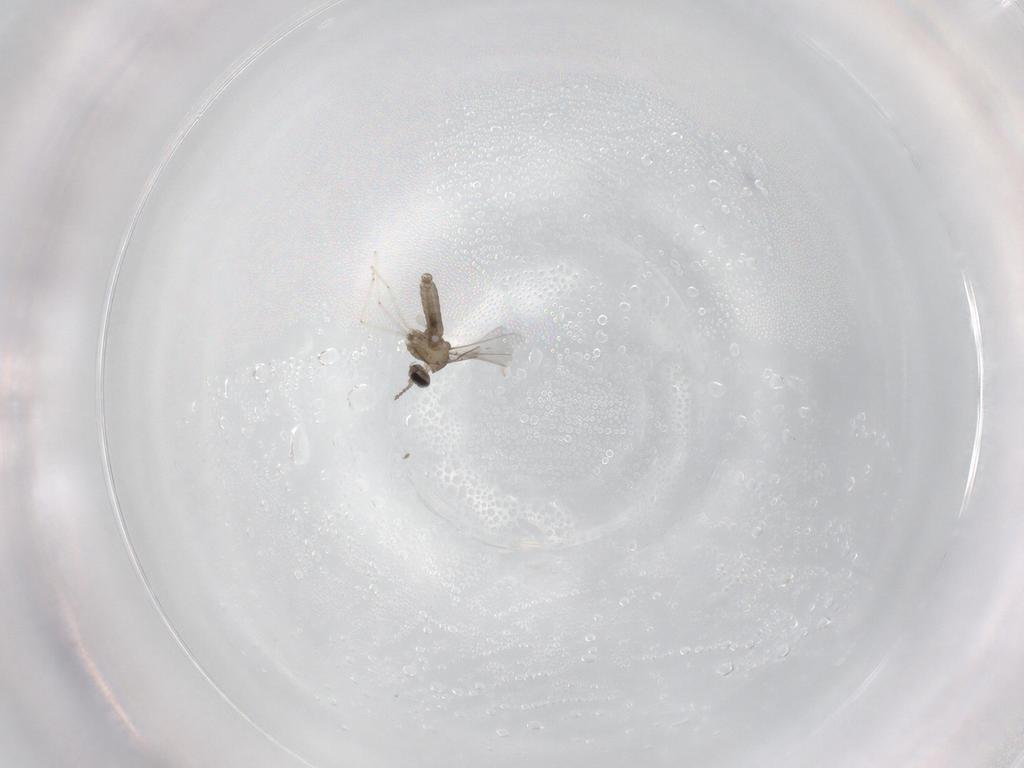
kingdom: Animalia
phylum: Arthropoda
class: Insecta
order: Diptera
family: Cecidomyiidae
